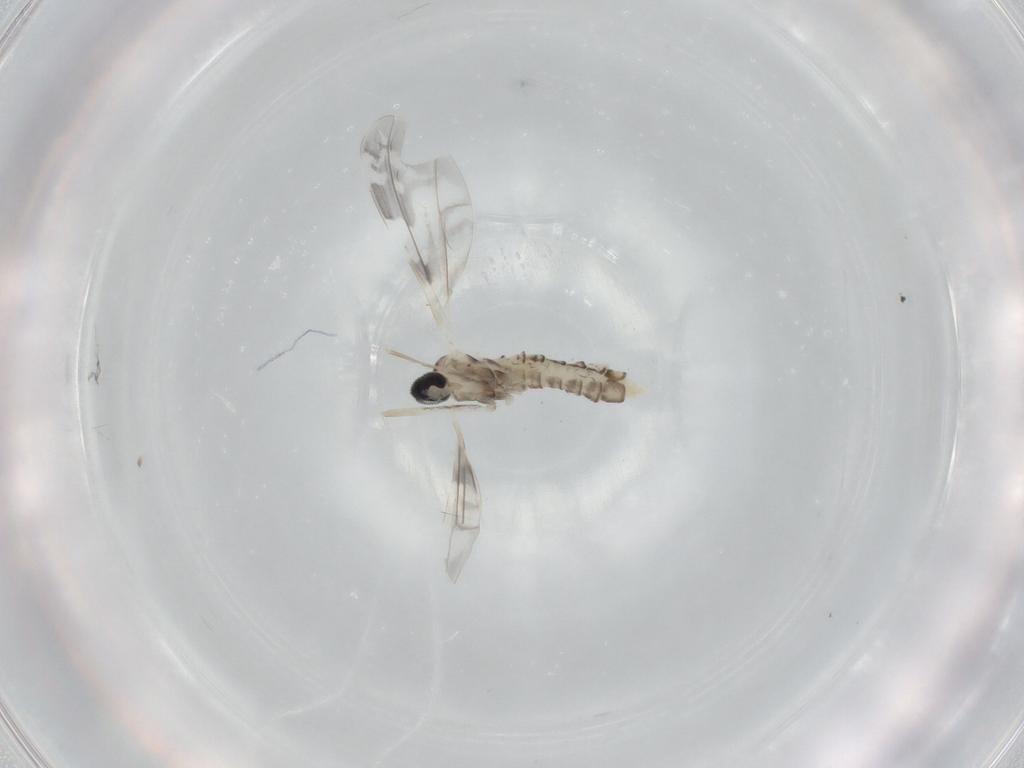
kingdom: Animalia
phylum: Arthropoda
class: Insecta
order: Diptera
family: Cecidomyiidae
